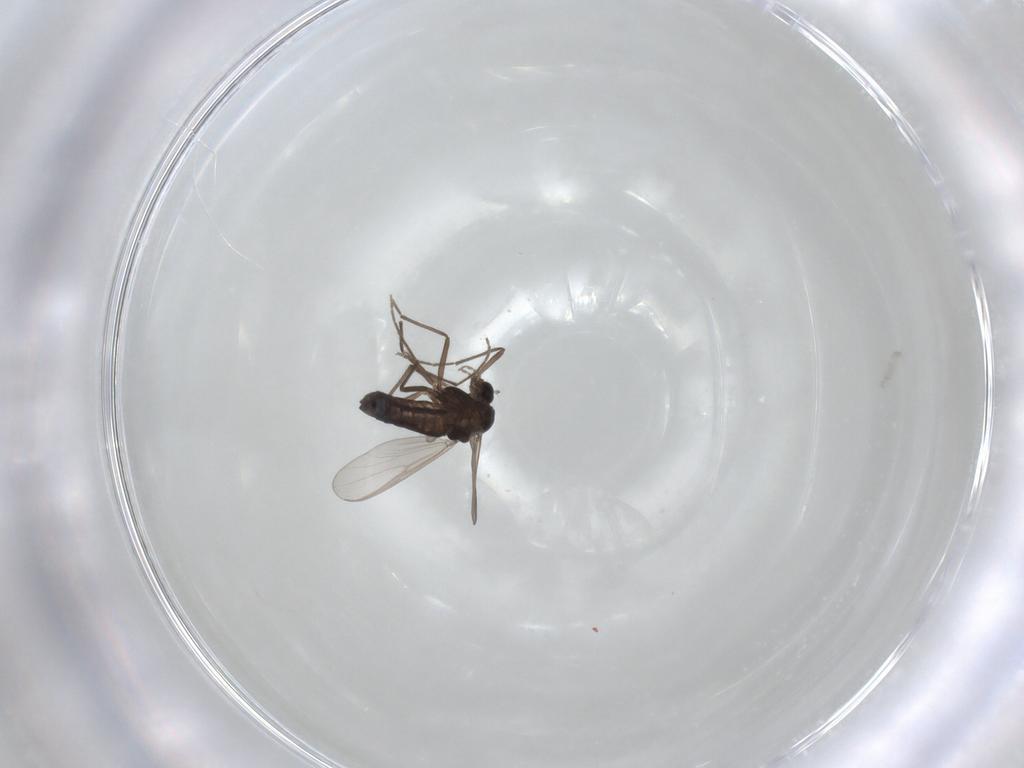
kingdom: Animalia
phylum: Arthropoda
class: Insecta
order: Diptera
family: Chironomidae
